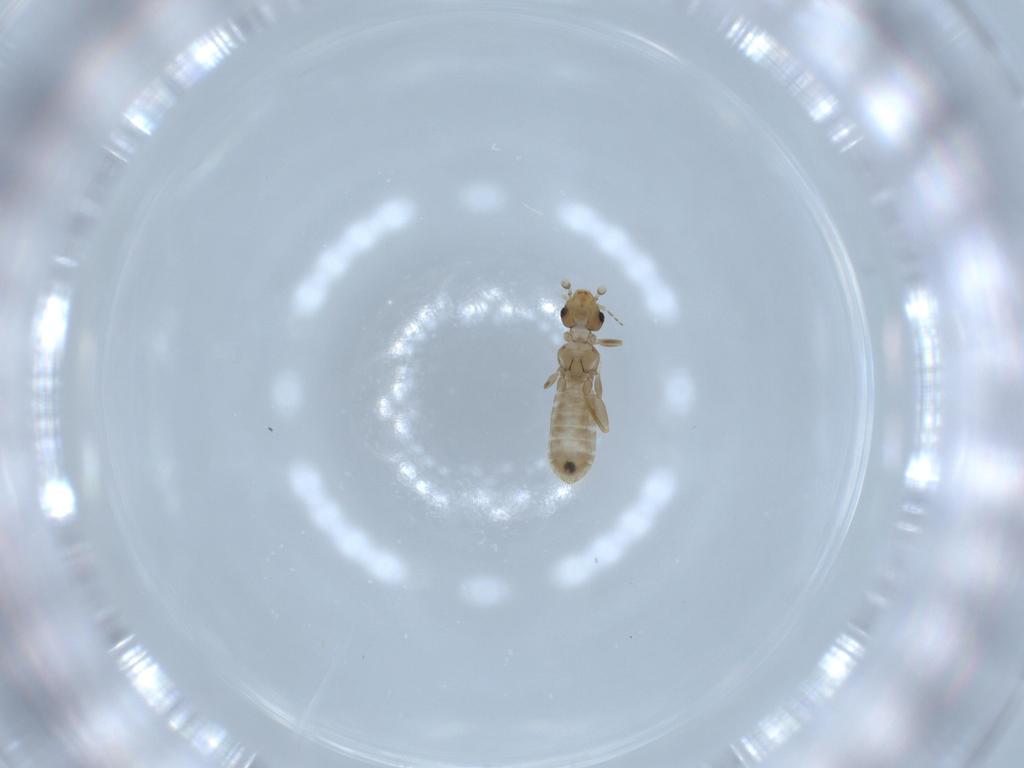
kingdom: Animalia
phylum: Arthropoda
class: Insecta
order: Psocodea
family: Liposcelididae
